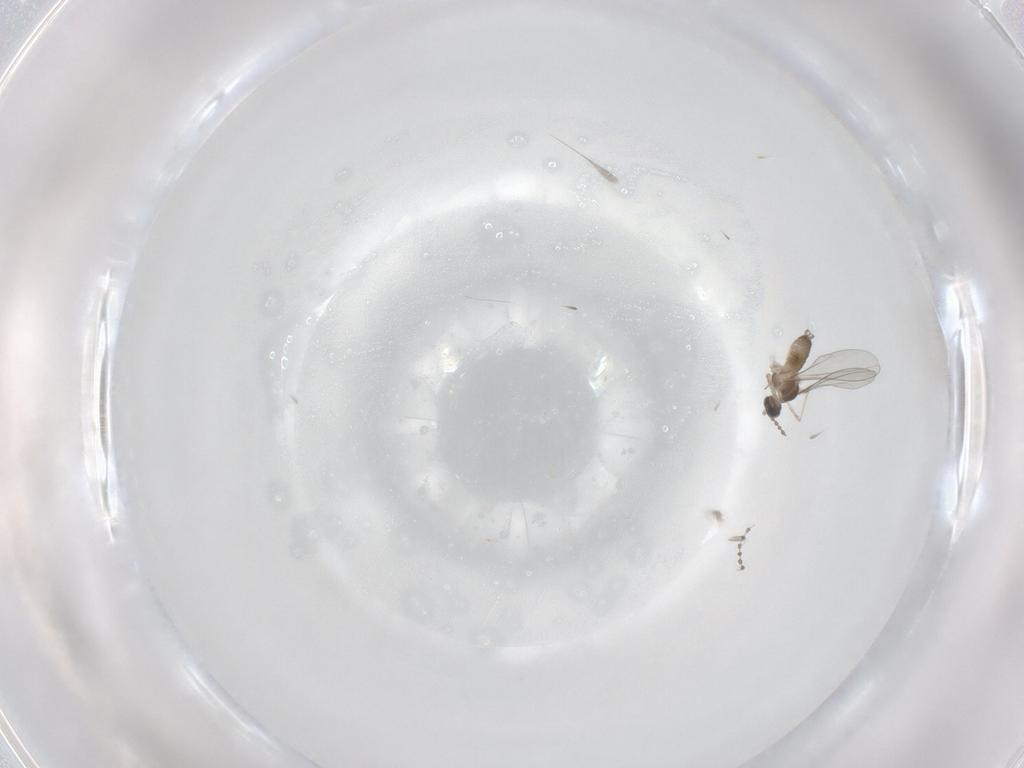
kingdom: Animalia
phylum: Arthropoda
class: Insecta
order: Diptera
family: Cecidomyiidae
